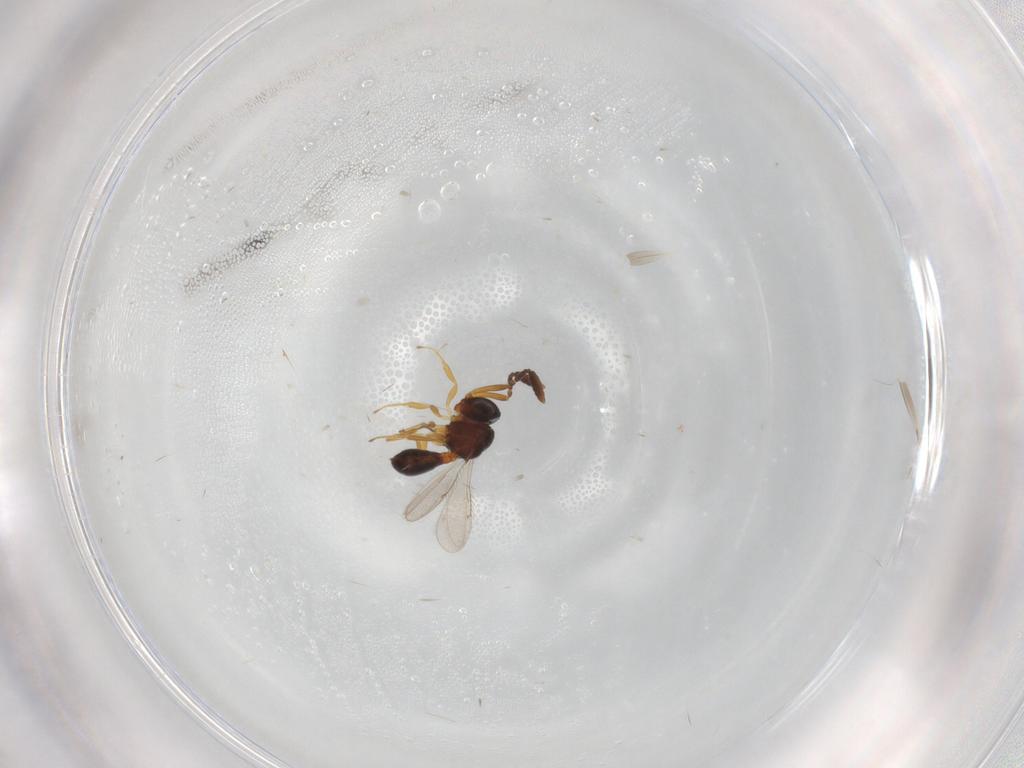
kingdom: Animalia
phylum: Arthropoda
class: Insecta
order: Hymenoptera
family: Scelionidae
